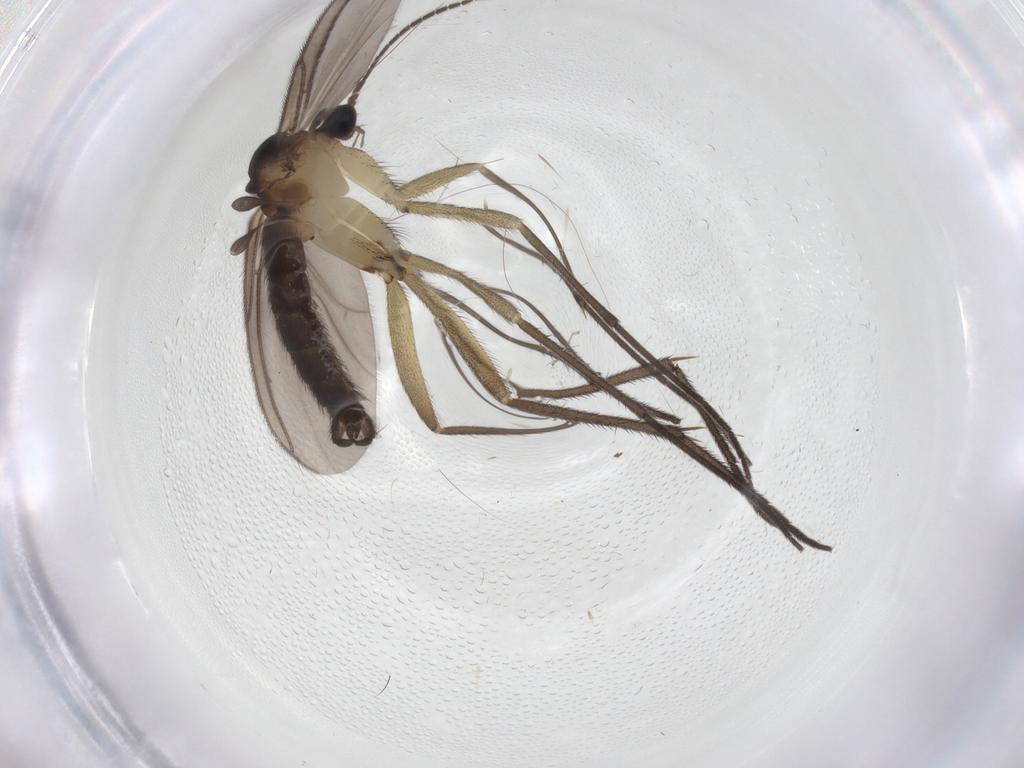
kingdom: Animalia
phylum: Arthropoda
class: Insecta
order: Diptera
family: Sciaridae
